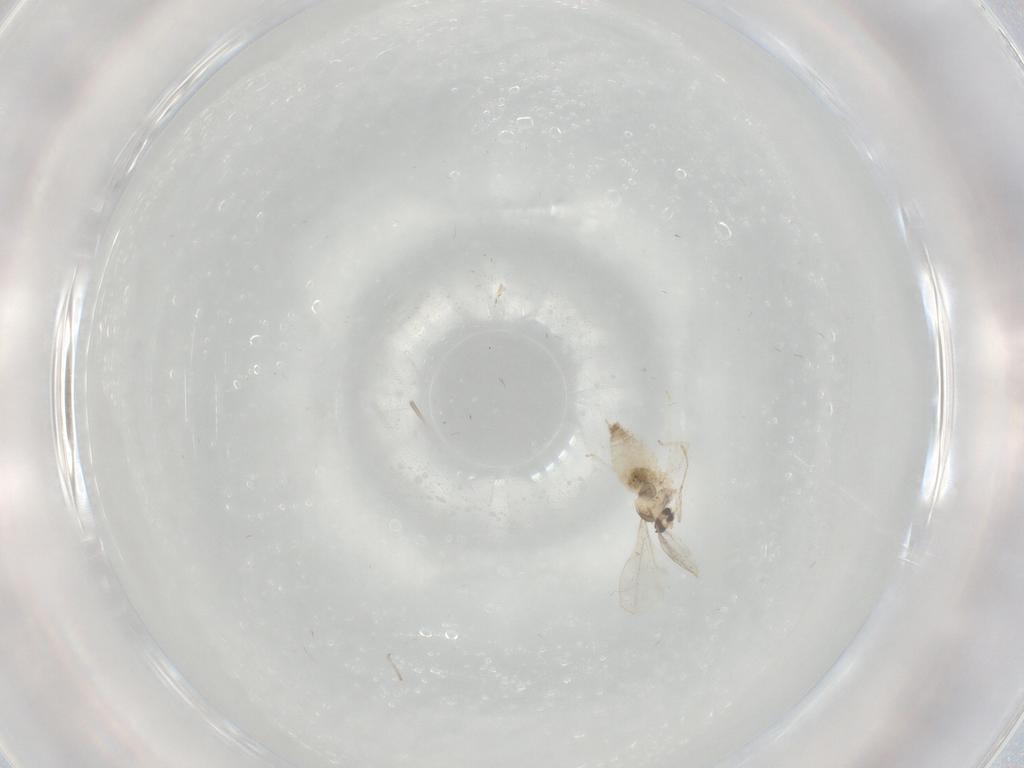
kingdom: Animalia
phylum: Arthropoda
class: Insecta
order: Diptera
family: Cecidomyiidae
